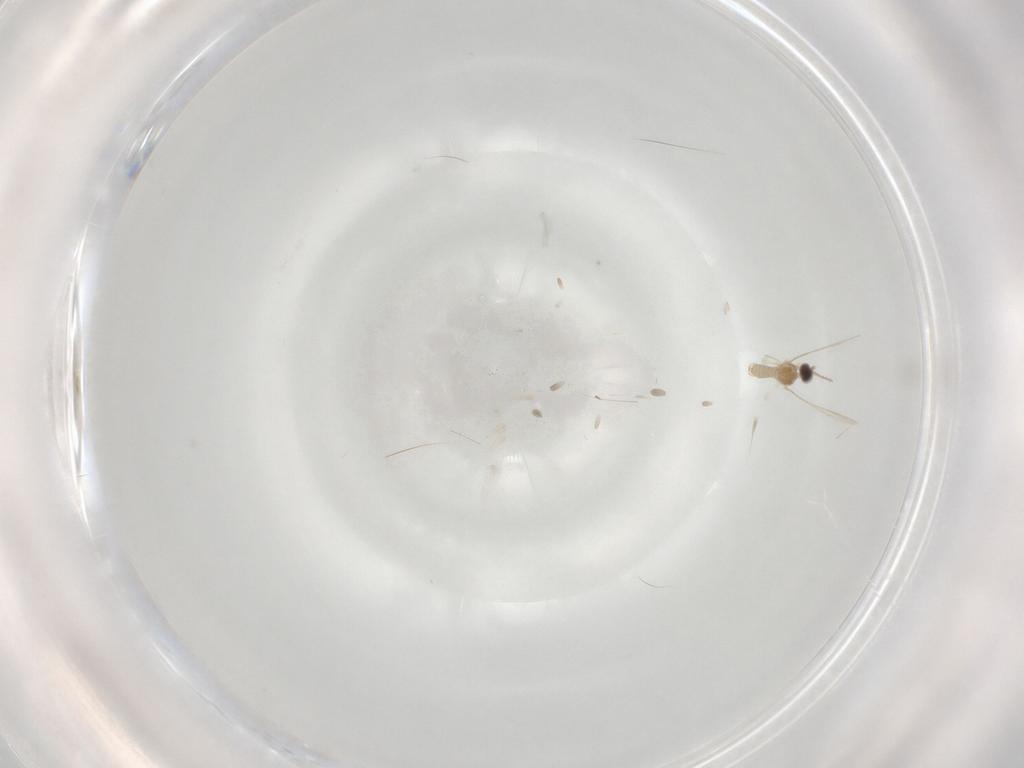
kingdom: Animalia
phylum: Arthropoda
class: Insecta
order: Diptera
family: Cecidomyiidae
